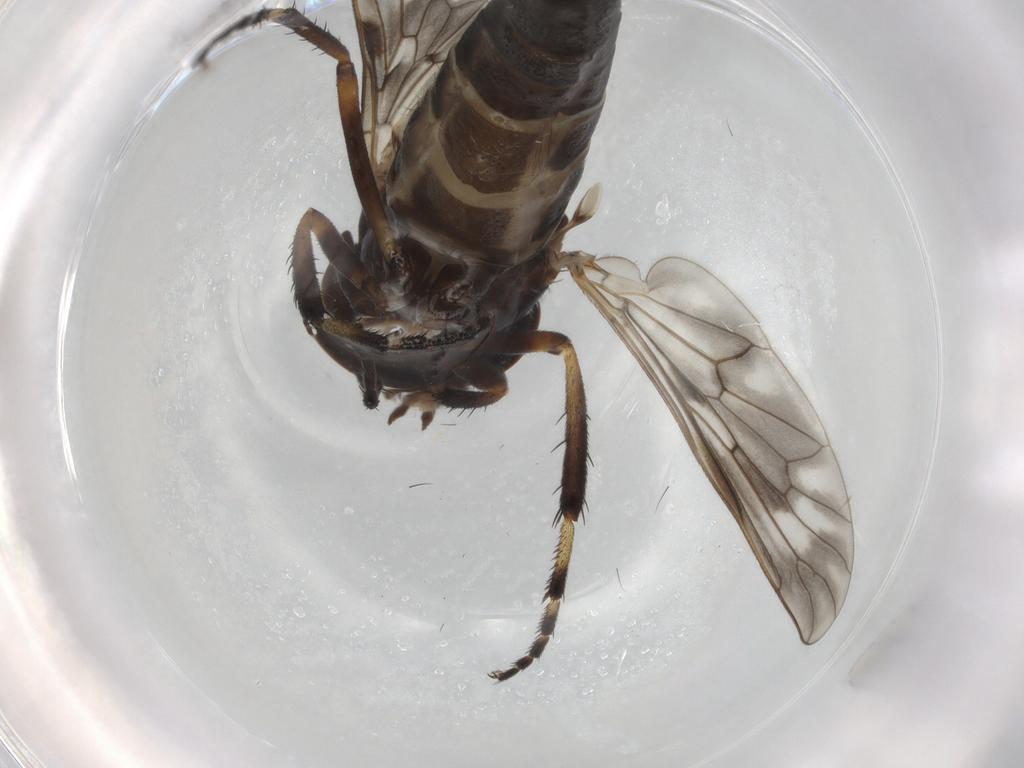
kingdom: Animalia
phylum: Arthropoda
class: Insecta
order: Diptera
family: Therevidae
